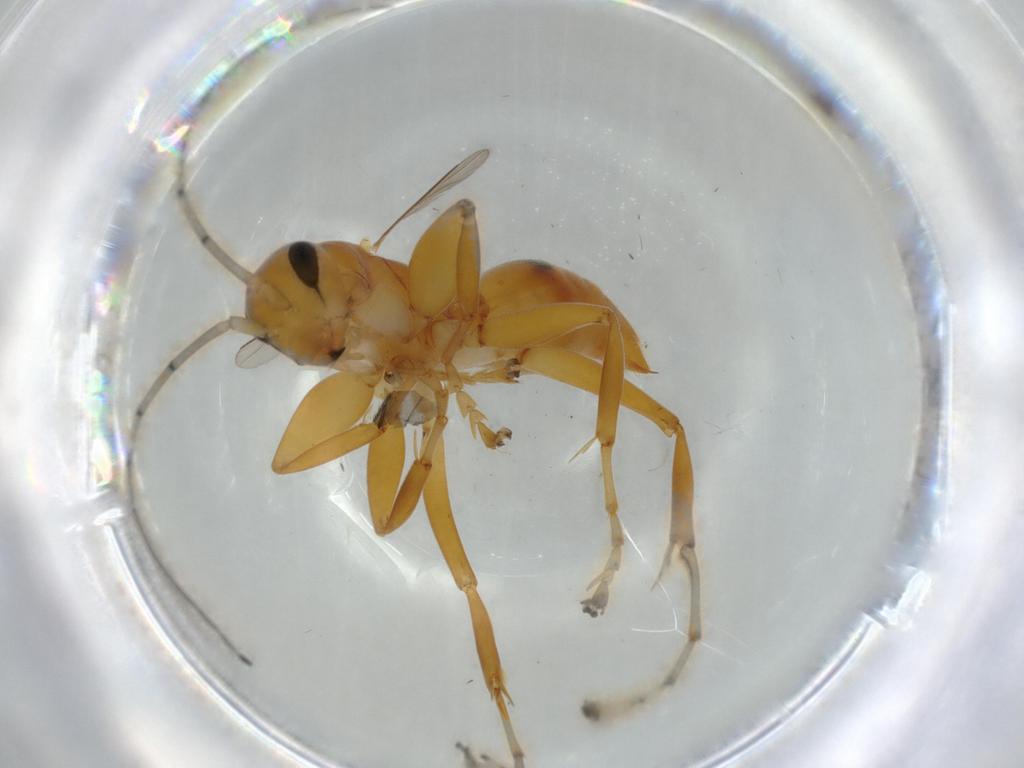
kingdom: Animalia
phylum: Arthropoda
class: Insecta
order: Hymenoptera
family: Rhopalosomatidae
